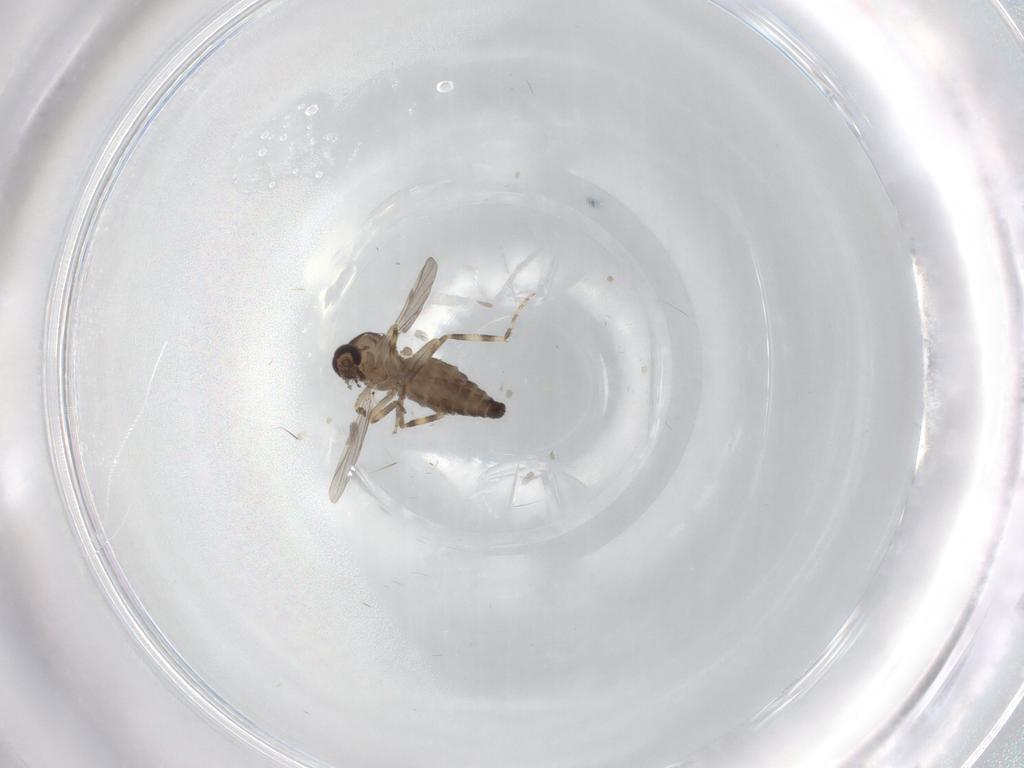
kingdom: Animalia
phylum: Arthropoda
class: Insecta
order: Diptera
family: Ceratopogonidae
